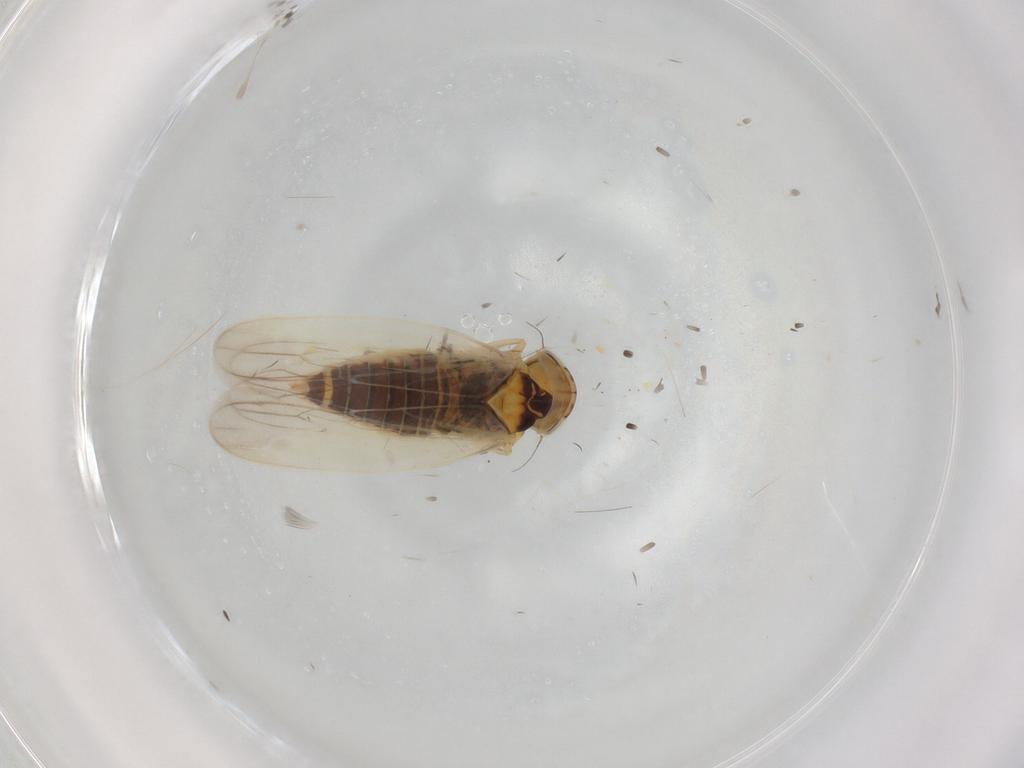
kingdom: Animalia
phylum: Arthropoda
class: Insecta
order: Hemiptera
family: Cicadellidae
